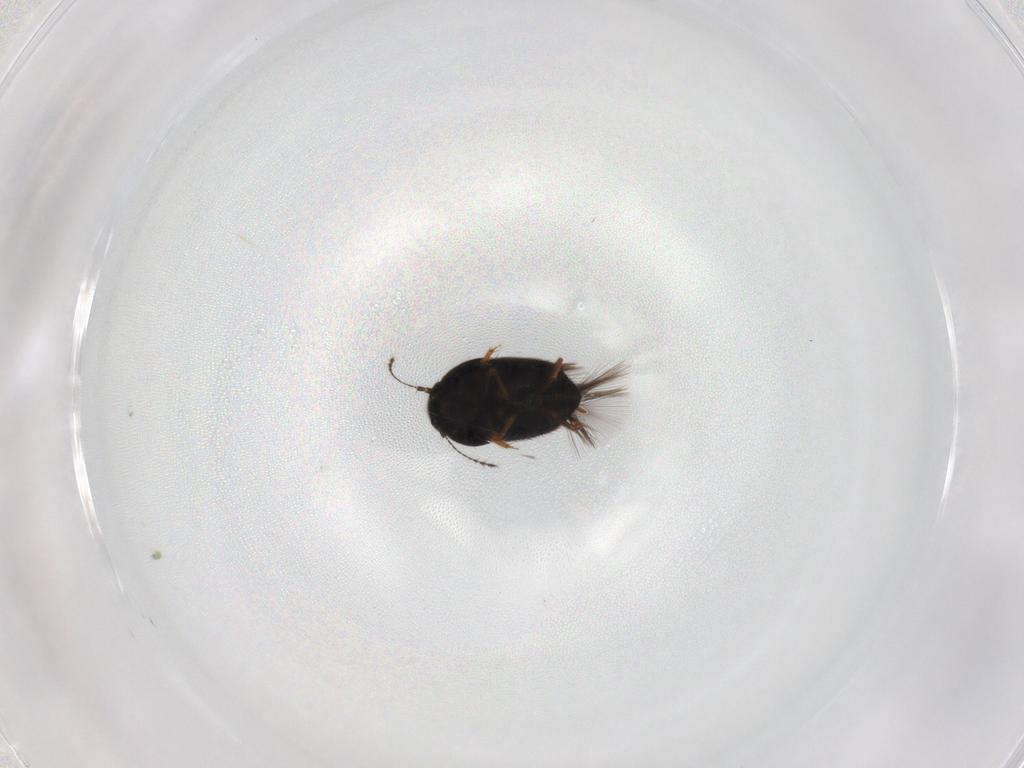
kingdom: Animalia
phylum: Arthropoda
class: Insecta
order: Coleoptera
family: Ptiliidae
